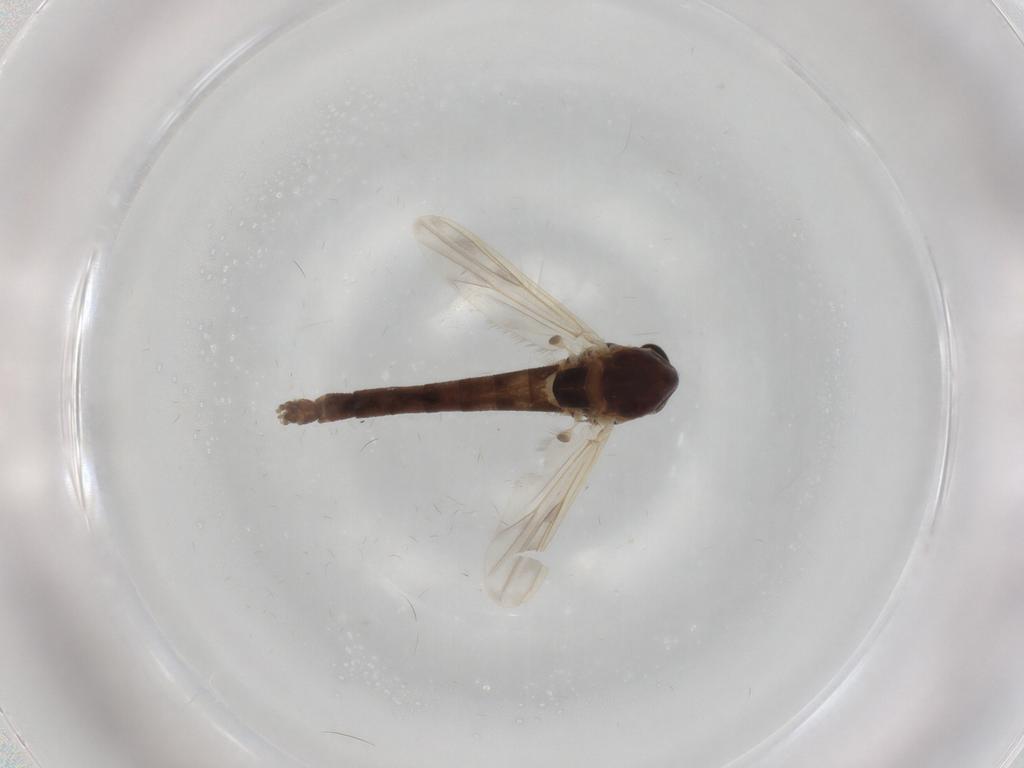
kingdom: Animalia
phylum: Arthropoda
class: Insecta
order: Diptera
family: Chironomidae
